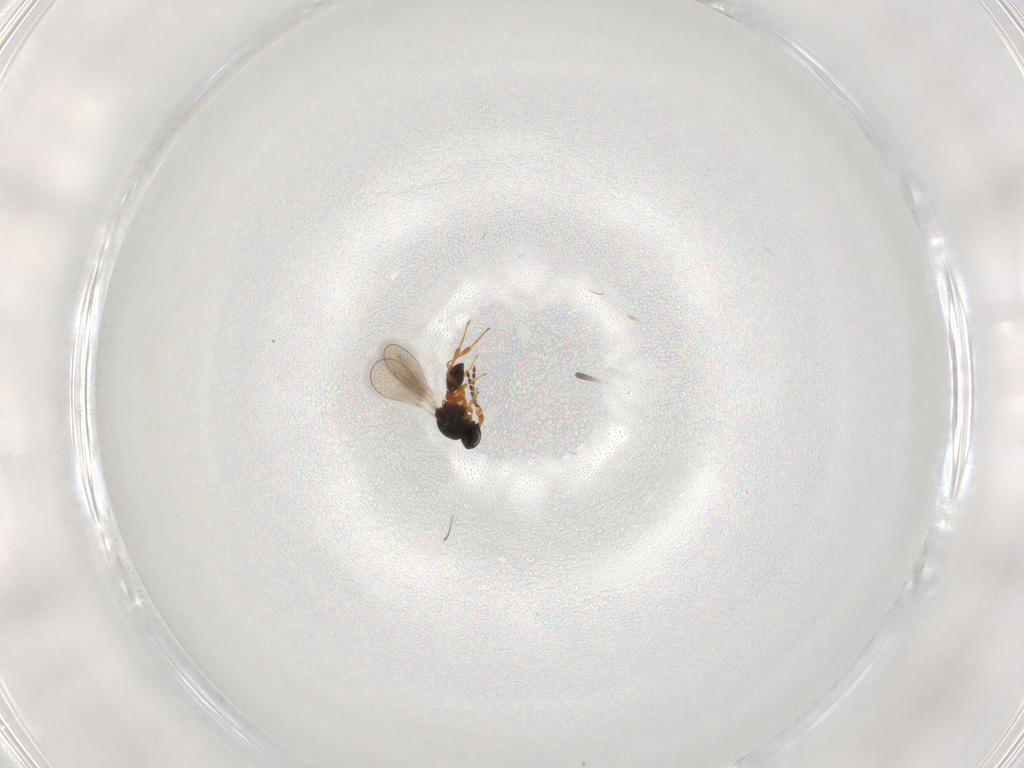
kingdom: Animalia
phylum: Arthropoda
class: Insecta
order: Hymenoptera
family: Platygastridae
